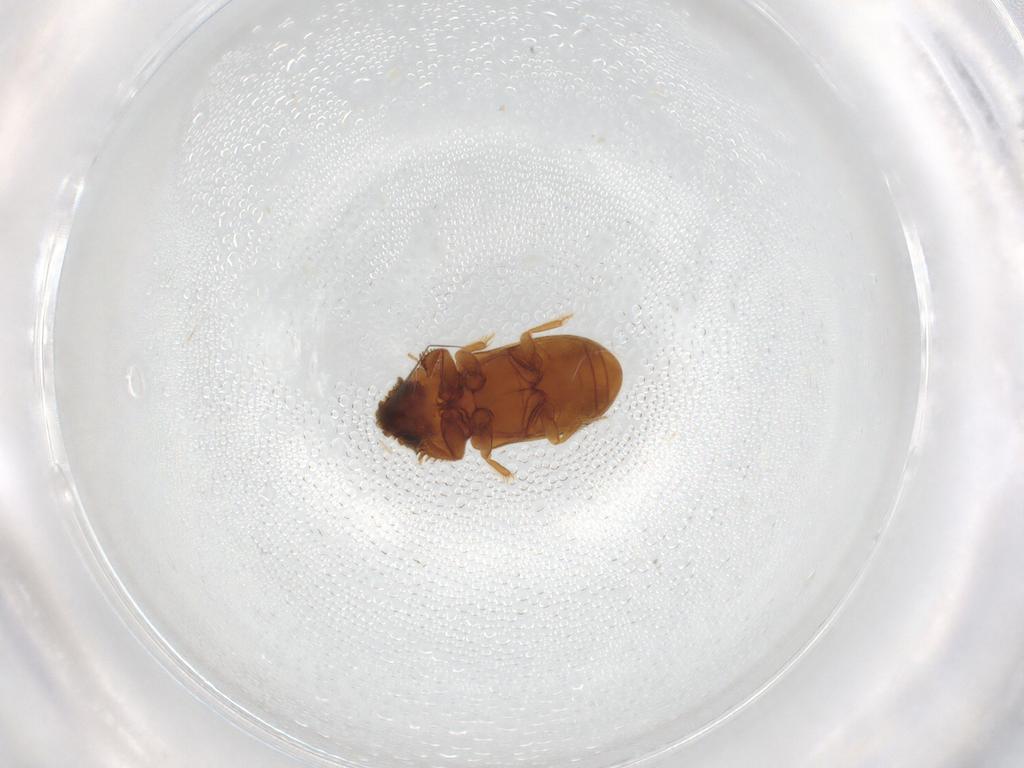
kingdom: Animalia
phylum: Arthropoda
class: Insecta
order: Coleoptera
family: Heteroceridae
